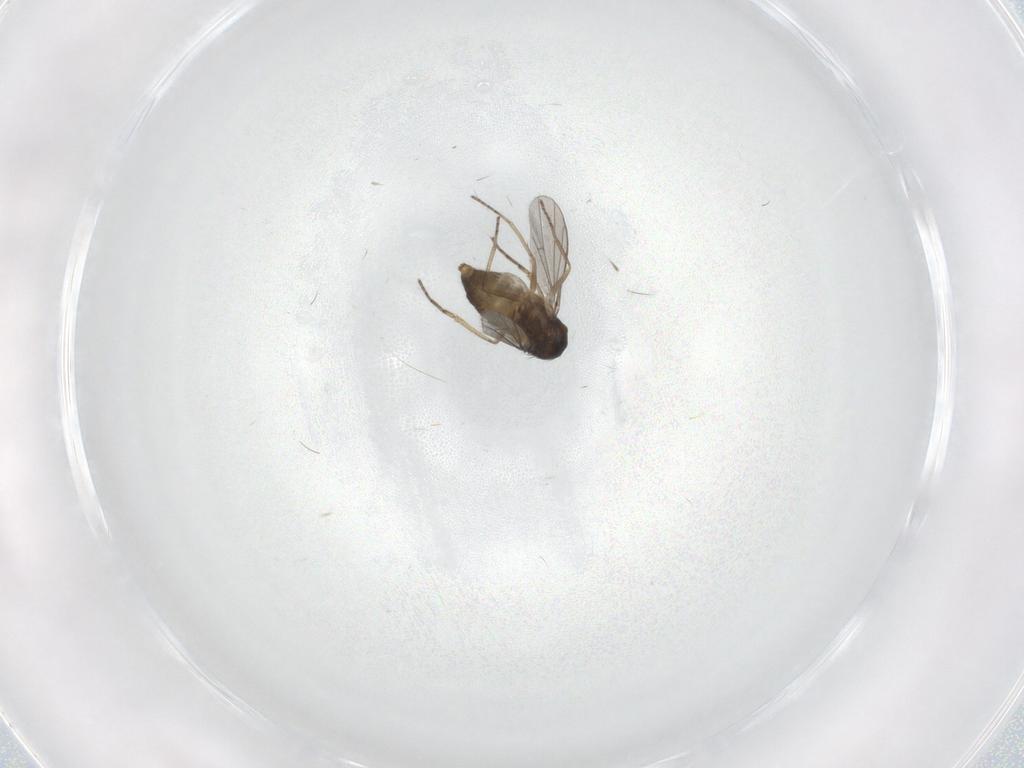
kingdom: Animalia
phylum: Arthropoda
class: Insecta
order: Diptera
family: Dolichopodidae
